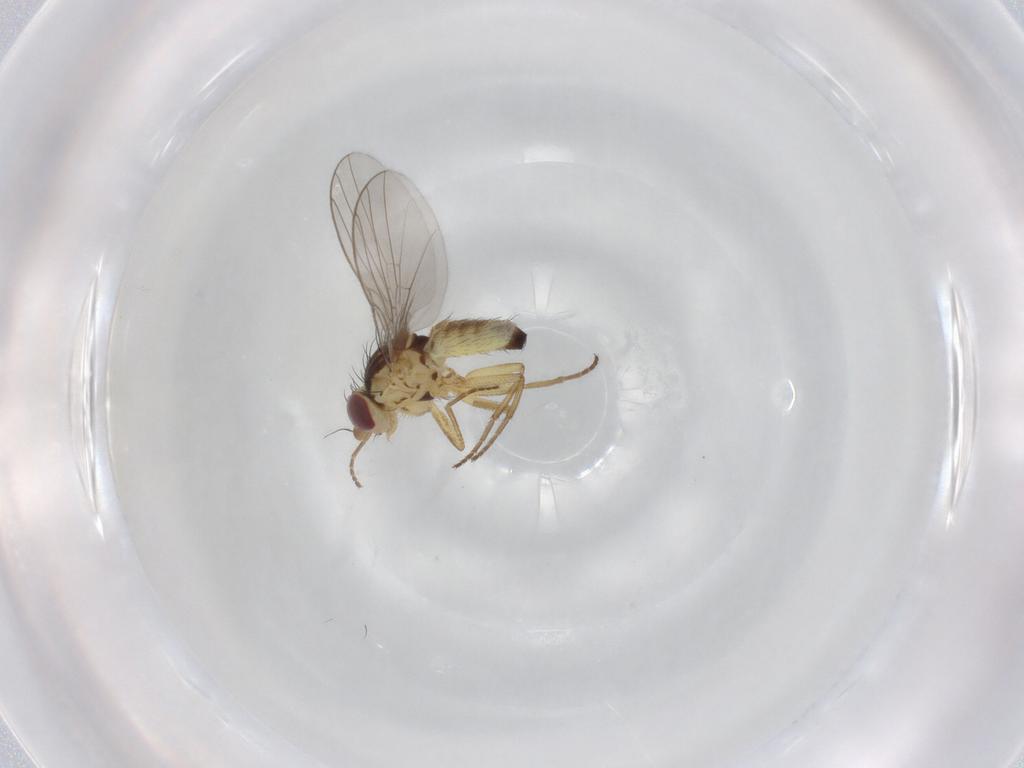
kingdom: Animalia
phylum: Arthropoda
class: Insecta
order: Diptera
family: Agromyzidae
